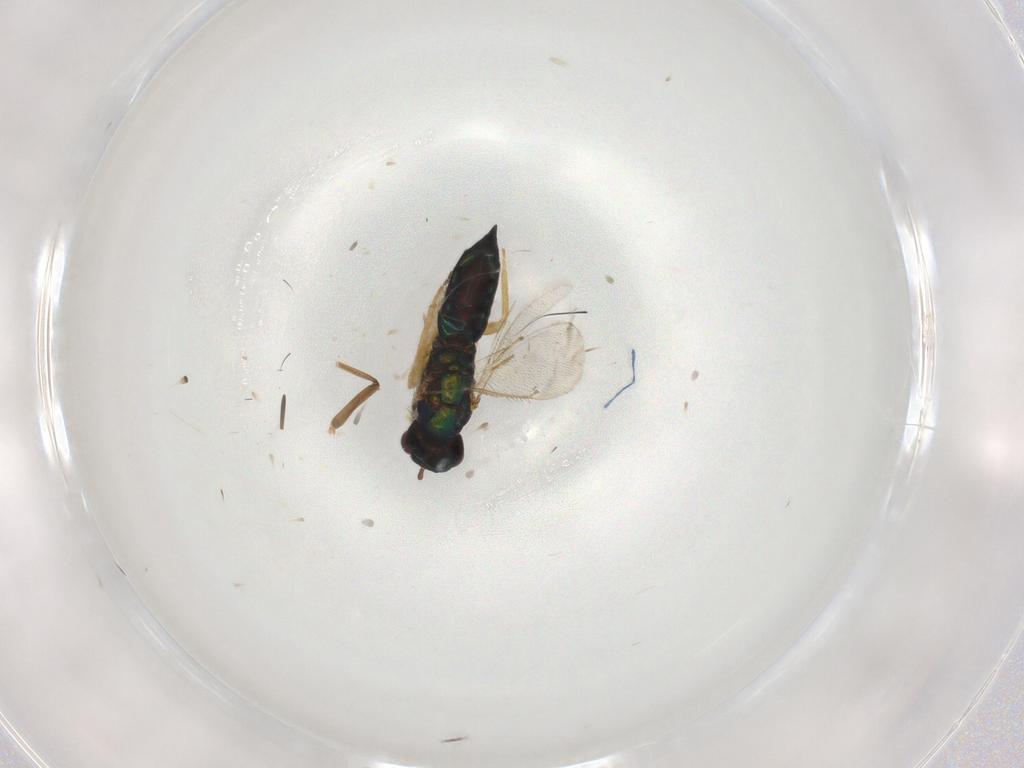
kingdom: Animalia
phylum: Arthropoda
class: Insecta
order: Hymenoptera
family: Eulophidae
